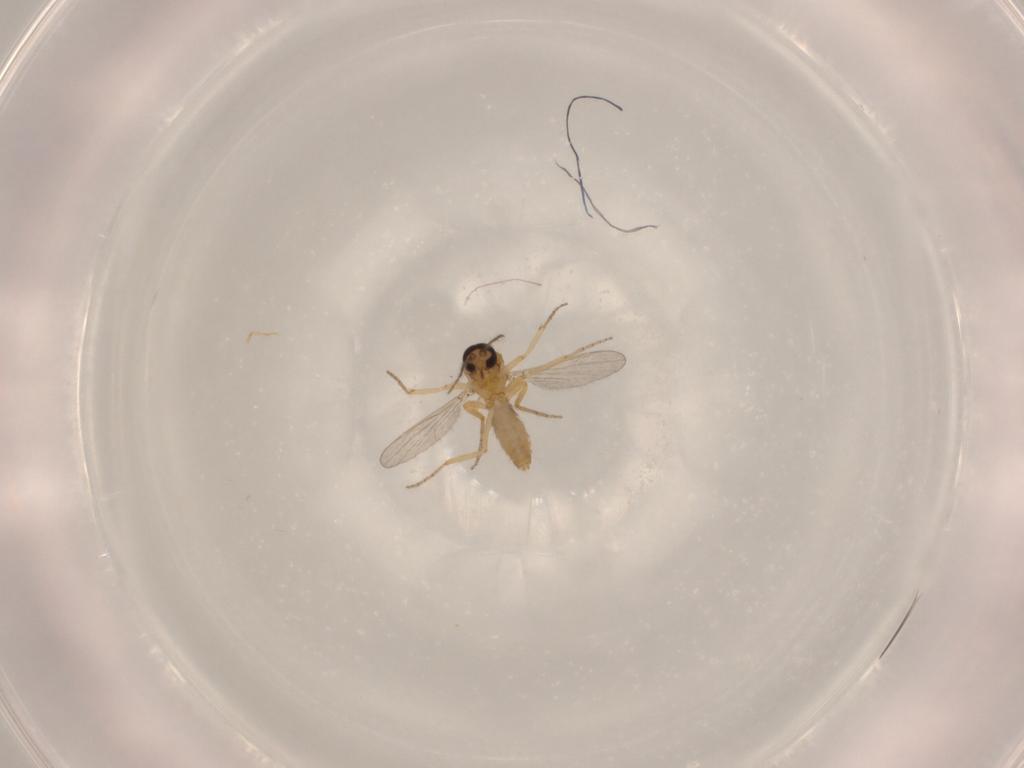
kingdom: Animalia
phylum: Arthropoda
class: Insecta
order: Diptera
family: Ceratopogonidae
